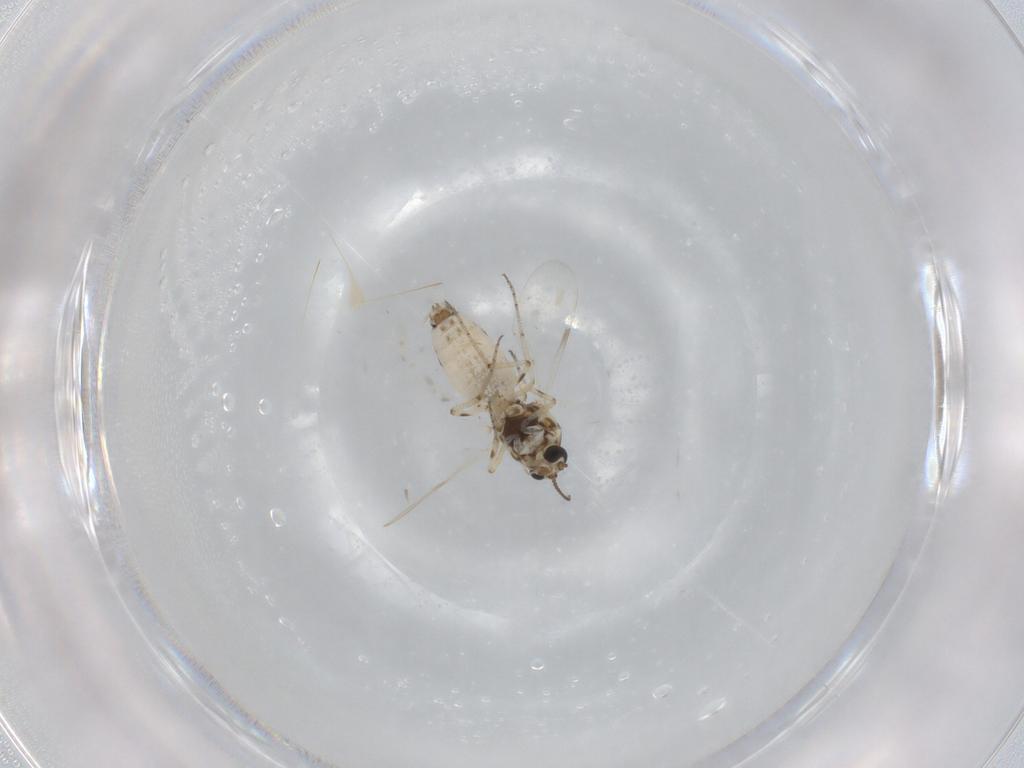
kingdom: Animalia
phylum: Arthropoda
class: Insecta
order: Diptera
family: Ceratopogonidae
